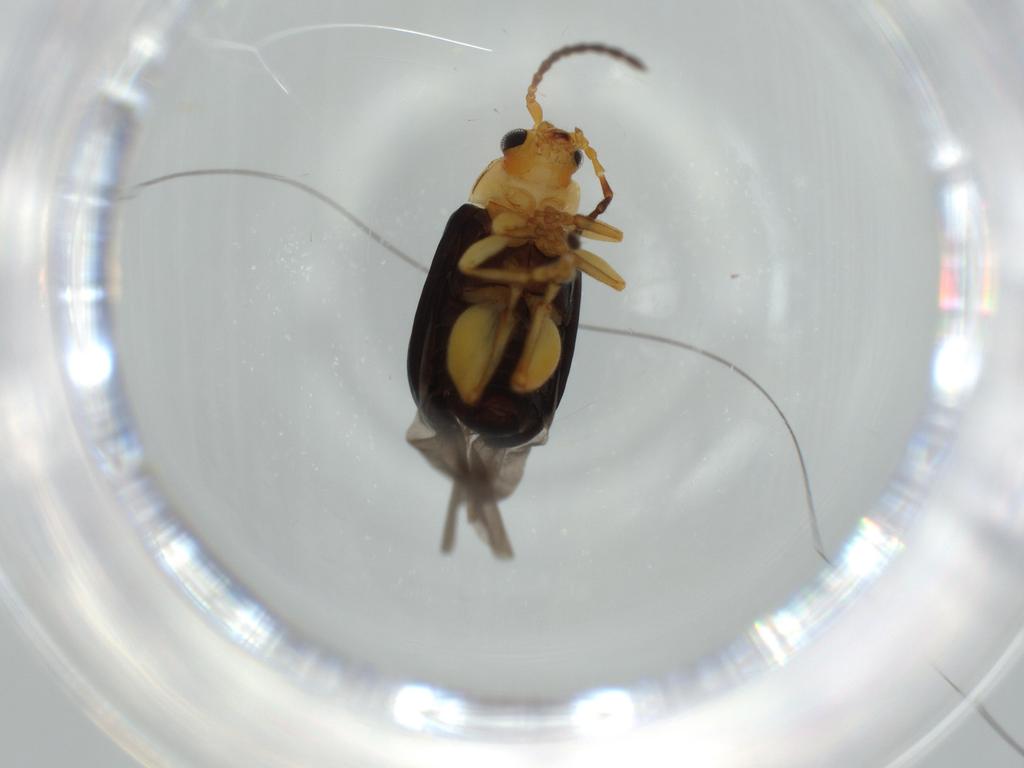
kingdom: Animalia
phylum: Arthropoda
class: Insecta
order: Coleoptera
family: Chrysomelidae
